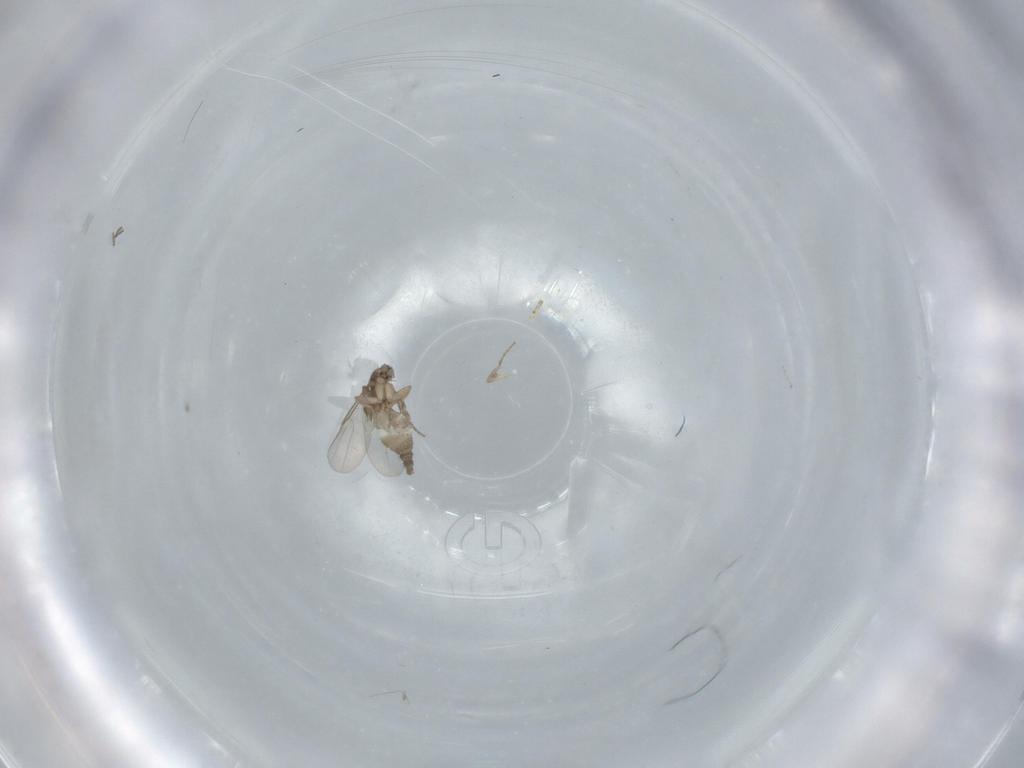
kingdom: Animalia
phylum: Arthropoda
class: Insecta
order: Diptera
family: Phoridae
